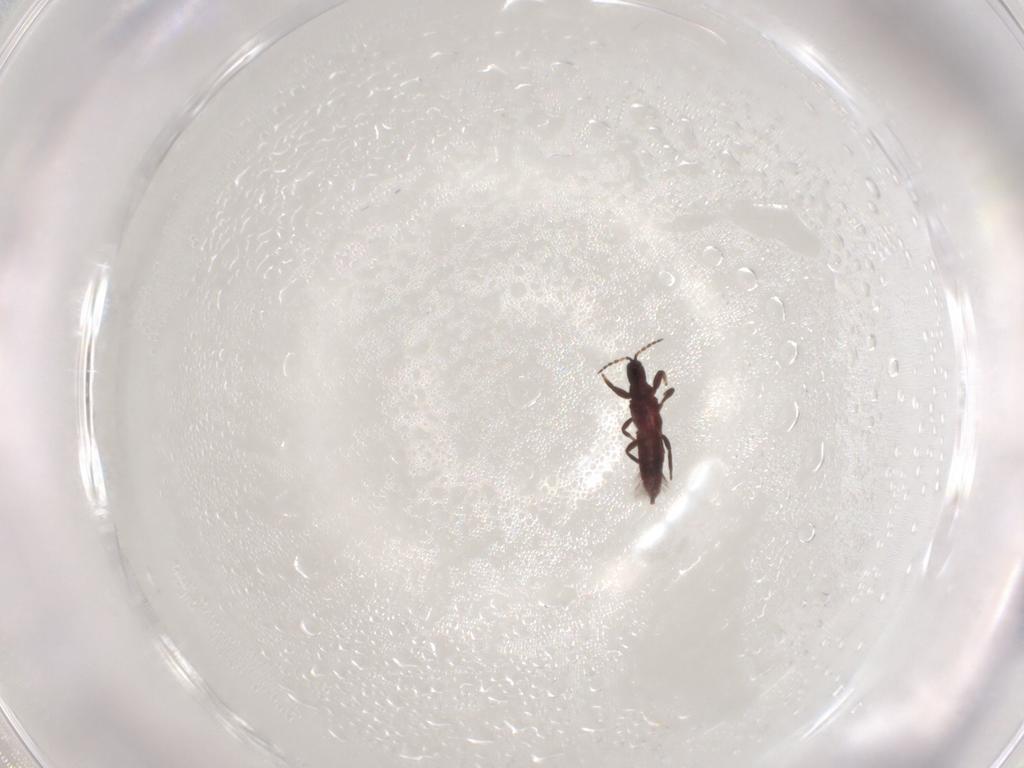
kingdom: Animalia
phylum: Arthropoda
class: Insecta
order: Thysanoptera
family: Phlaeothripidae
